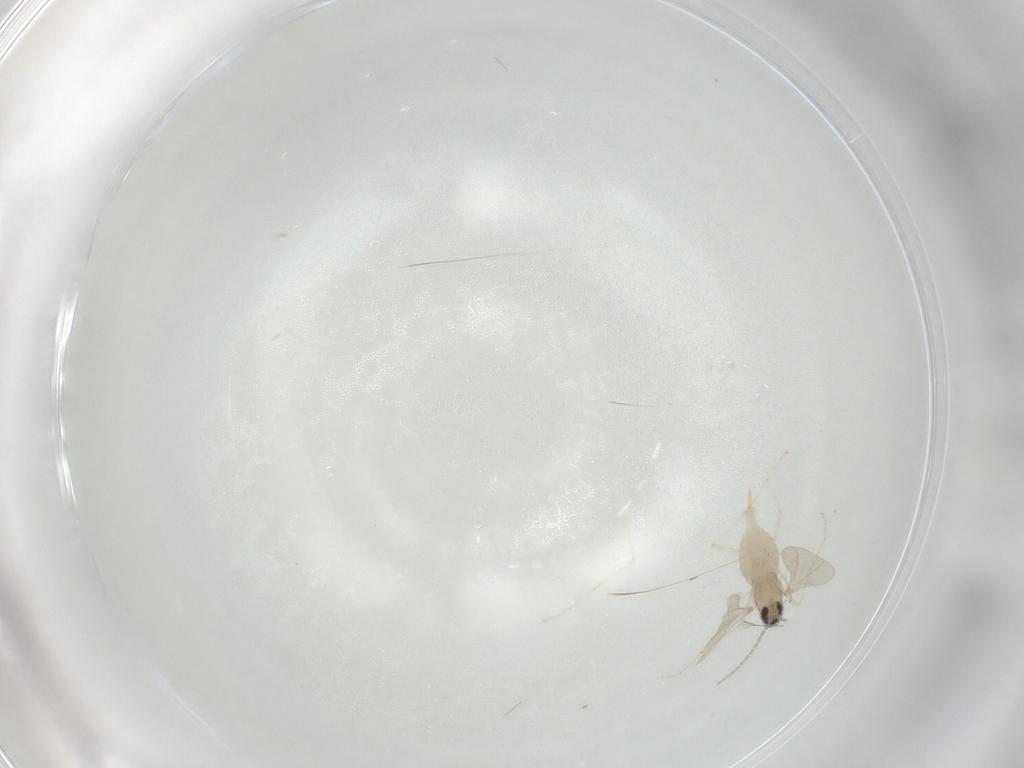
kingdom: Animalia
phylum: Arthropoda
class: Insecta
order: Diptera
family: Cecidomyiidae
